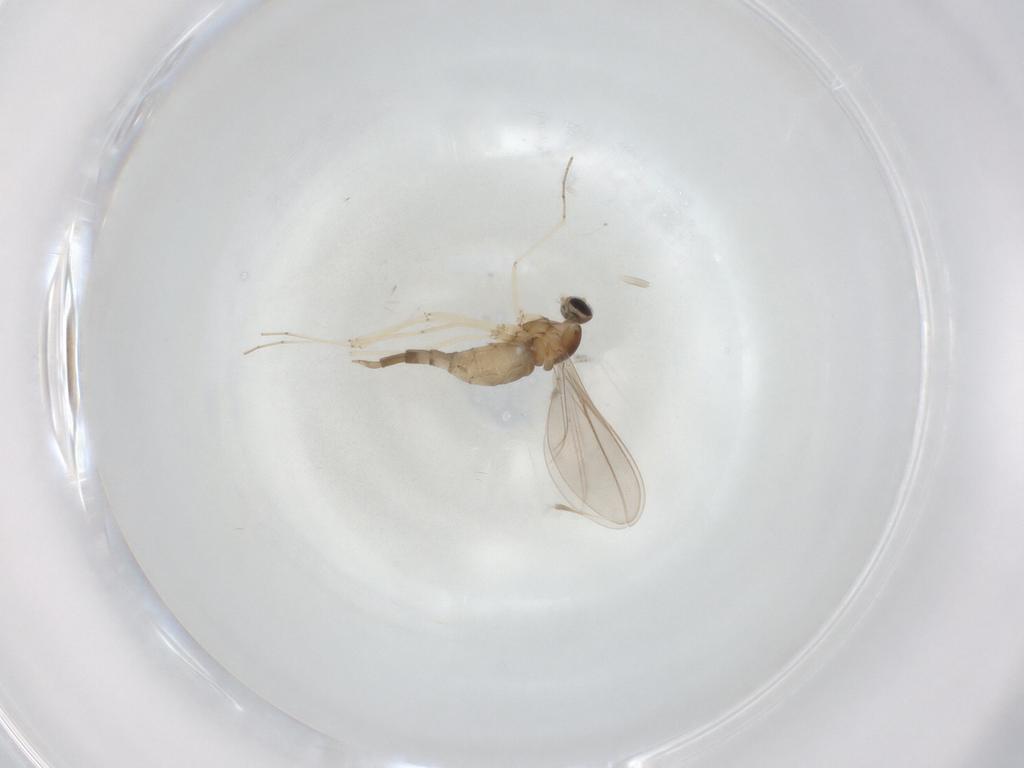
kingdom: Animalia
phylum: Arthropoda
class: Insecta
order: Diptera
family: Cecidomyiidae
